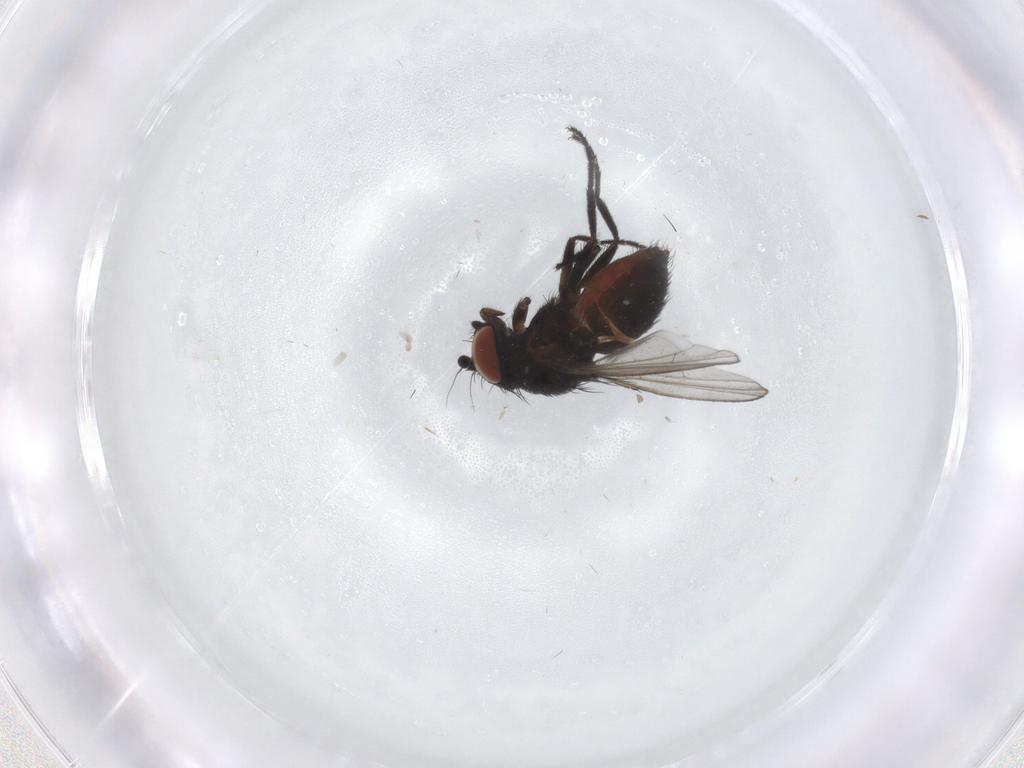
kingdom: Animalia
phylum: Arthropoda
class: Insecta
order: Diptera
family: Milichiidae
